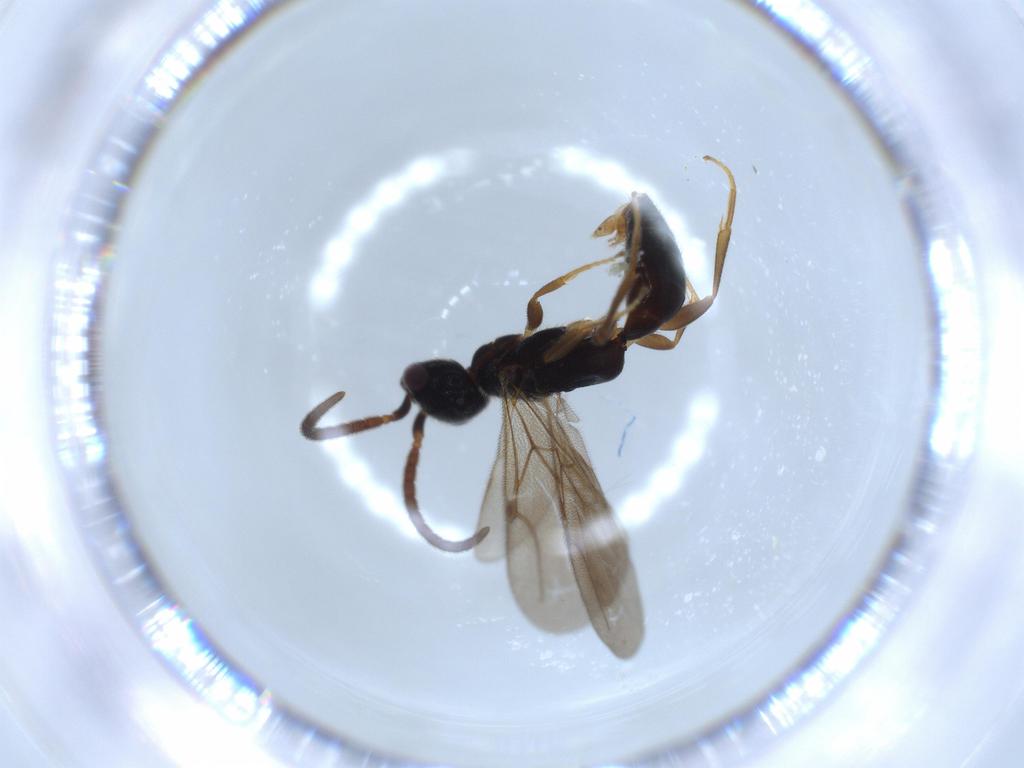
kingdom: Animalia
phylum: Arthropoda
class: Insecta
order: Hymenoptera
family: Bethylidae
